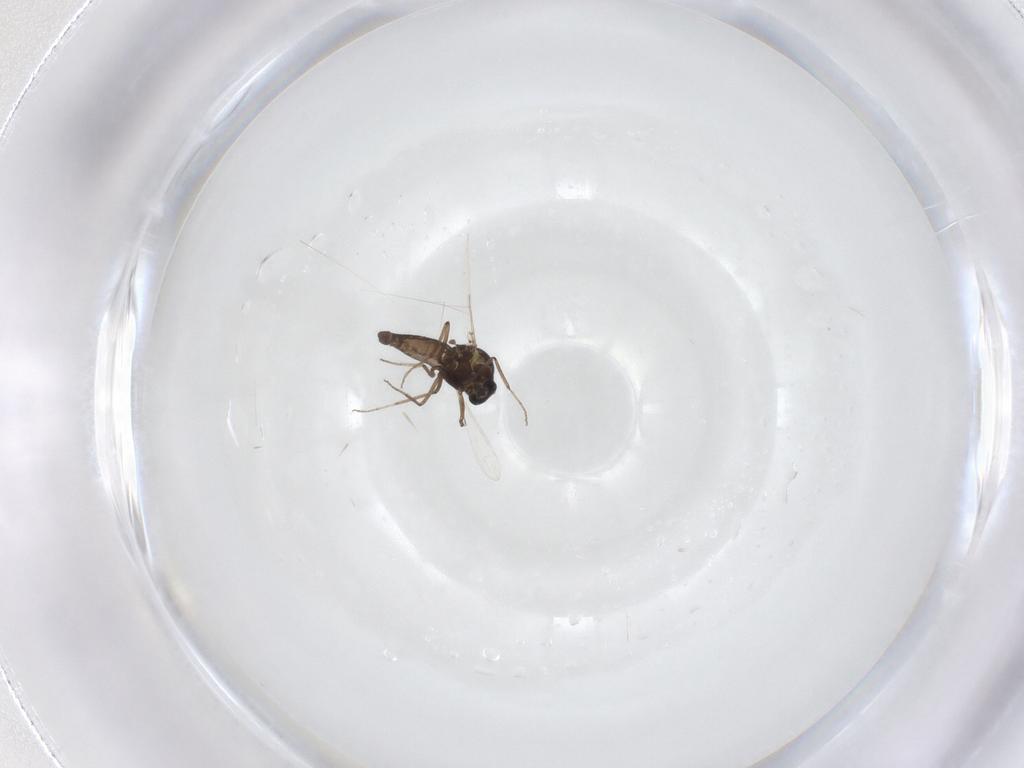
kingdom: Animalia
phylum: Arthropoda
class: Insecta
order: Diptera
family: Ceratopogonidae
